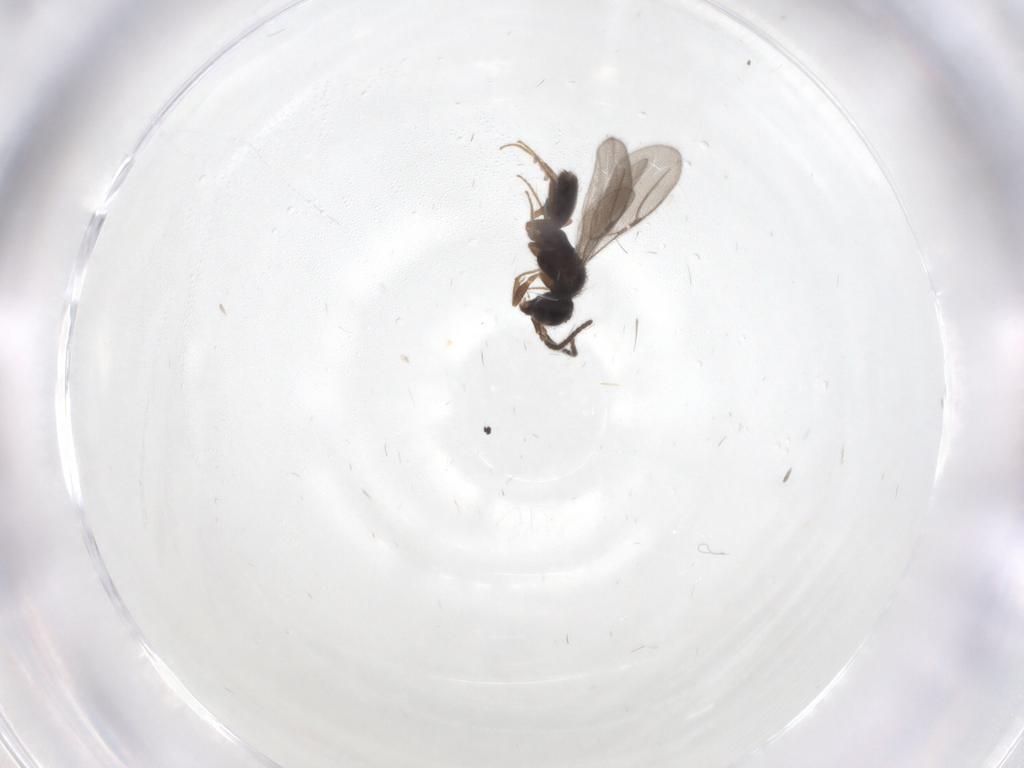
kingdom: Animalia
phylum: Arthropoda
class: Insecta
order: Hymenoptera
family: Bethylidae
